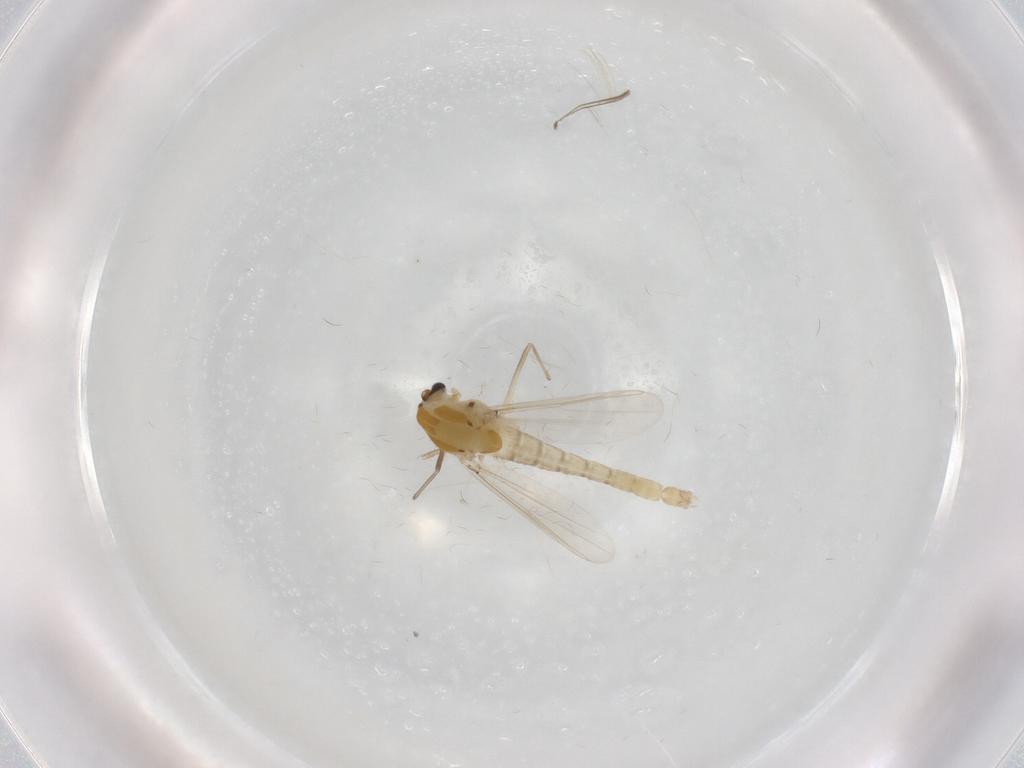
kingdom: Animalia
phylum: Arthropoda
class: Insecta
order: Diptera
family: Chironomidae
